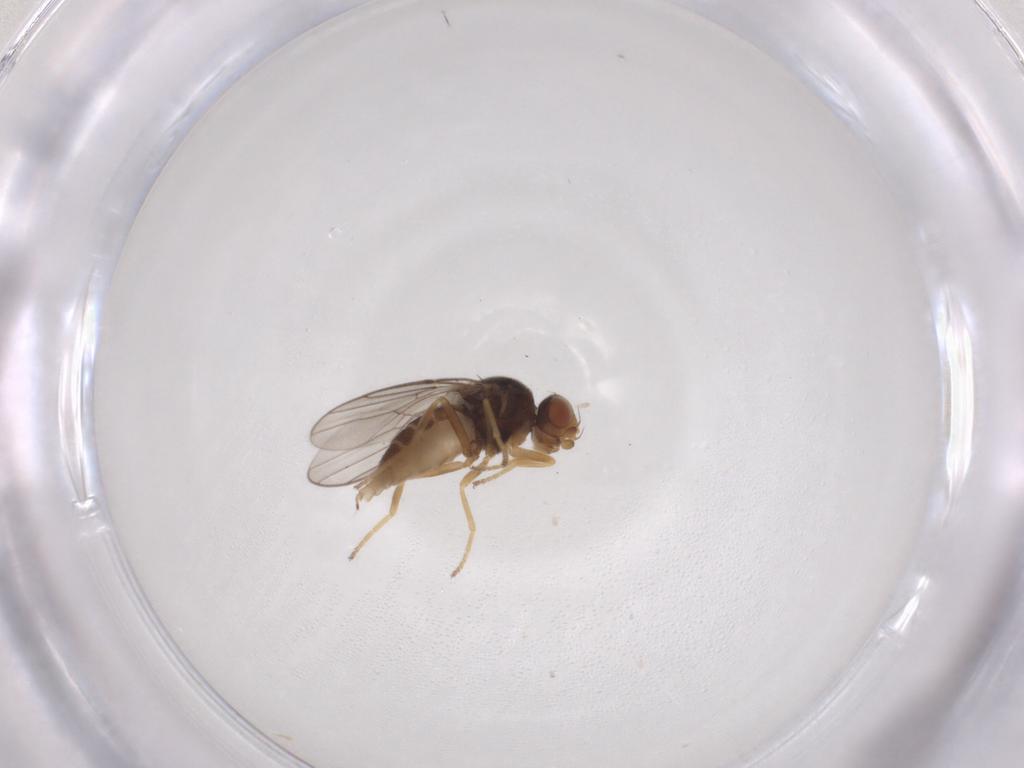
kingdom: Animalia
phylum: Arthropoda
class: Insecta
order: Diptera
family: Chloropidae
